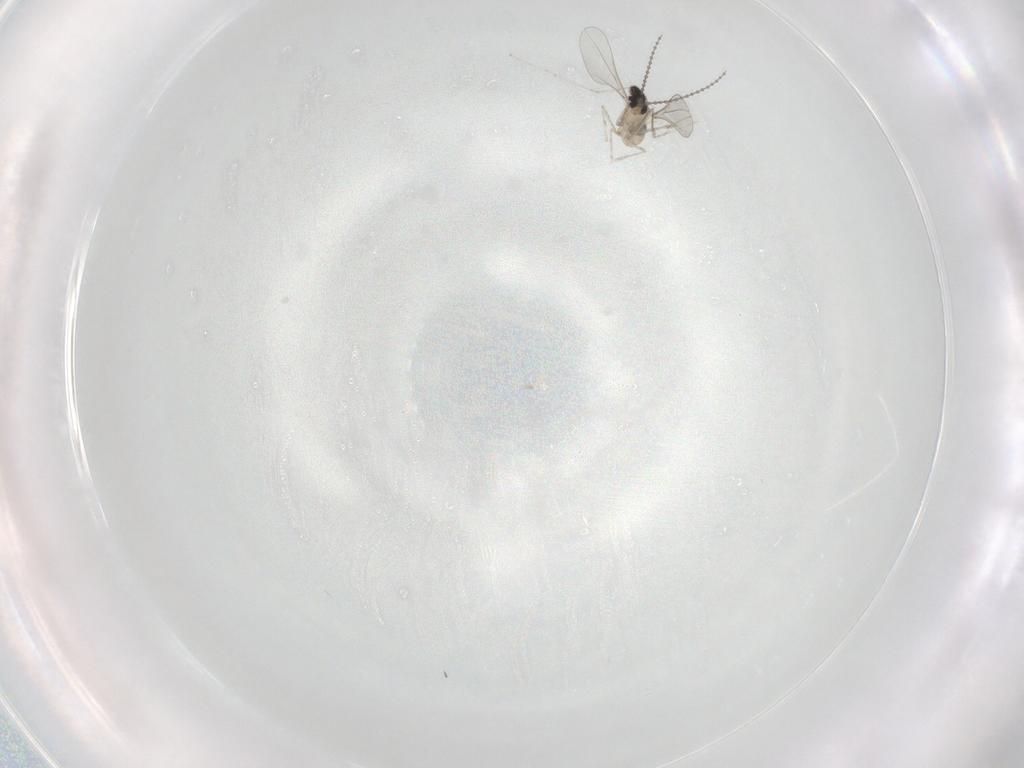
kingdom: Animalia
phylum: Arthropoda
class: Insecta
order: Diptera
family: Cecidomyiidae
